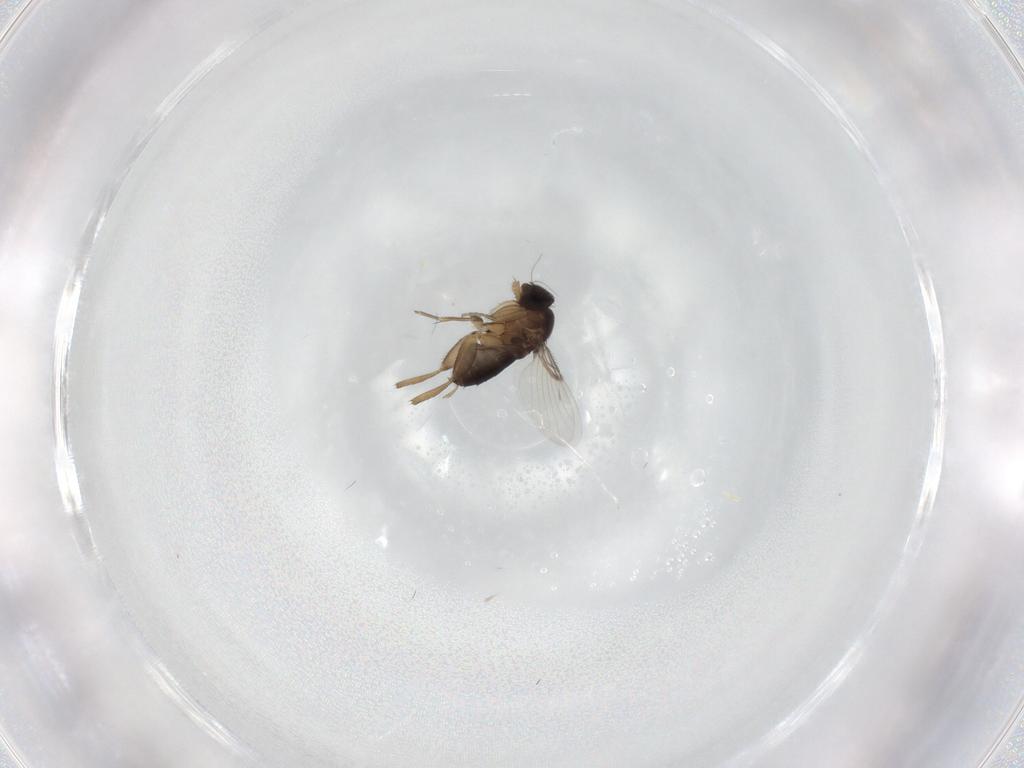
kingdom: Animalia
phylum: Arthropoda
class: Insecta
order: Diptera
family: Phoridae
